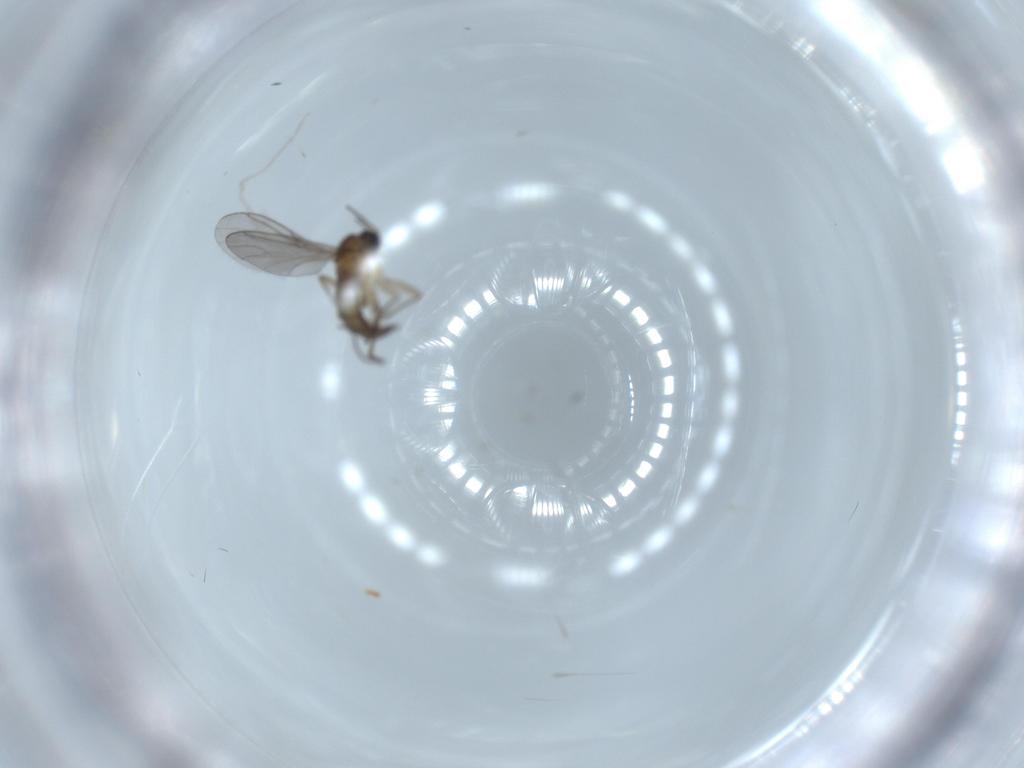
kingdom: Animalia
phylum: Arthropoda
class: Insecta
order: Diptera
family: Sciaridae
